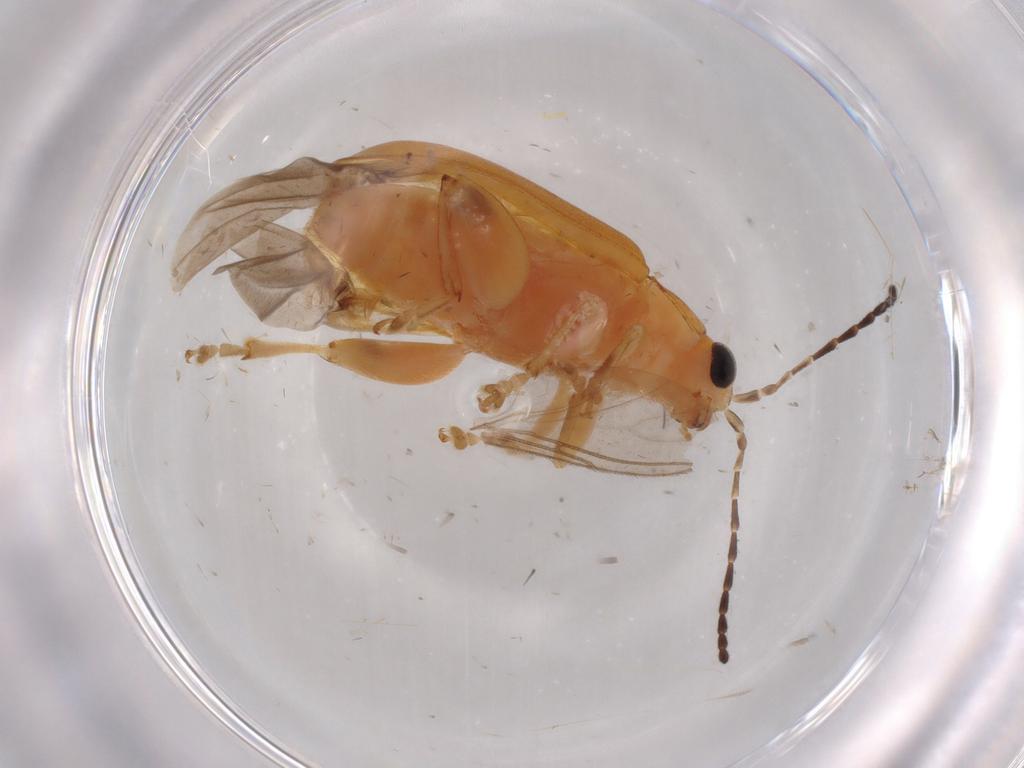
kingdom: Animalia
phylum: Arthropoda
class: Insecta
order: Coleoptera
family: Chrysomelidae
